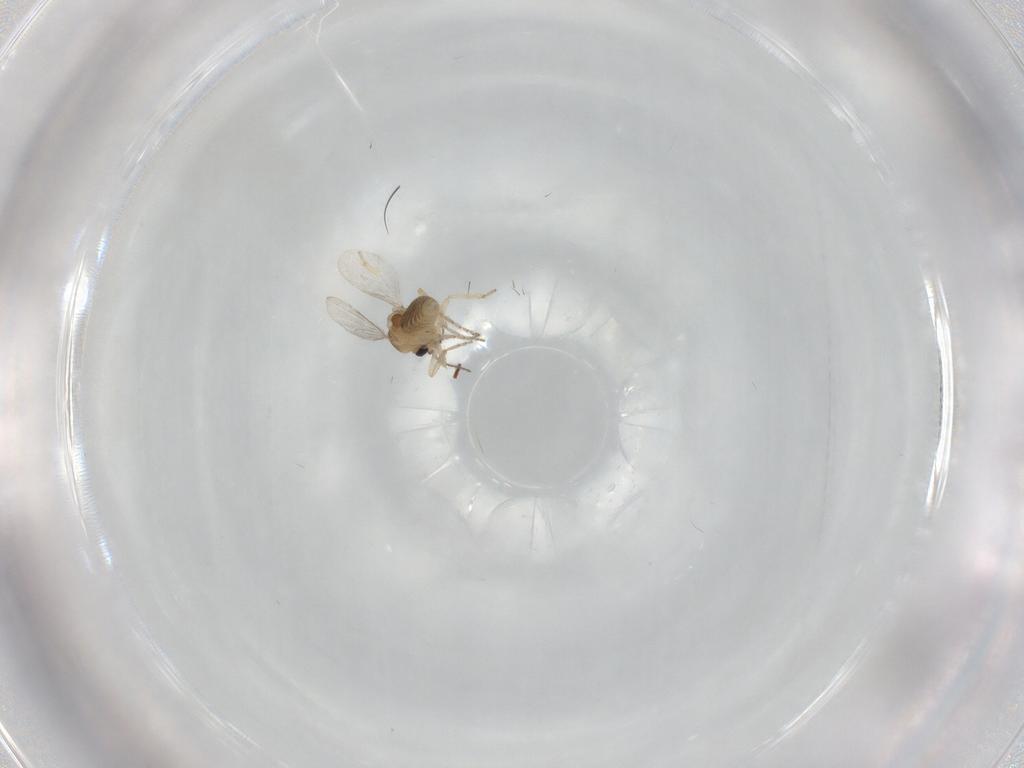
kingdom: Animalia
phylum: Arthropoda
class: Insecta
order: Diptera
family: Ceratopogonidae
